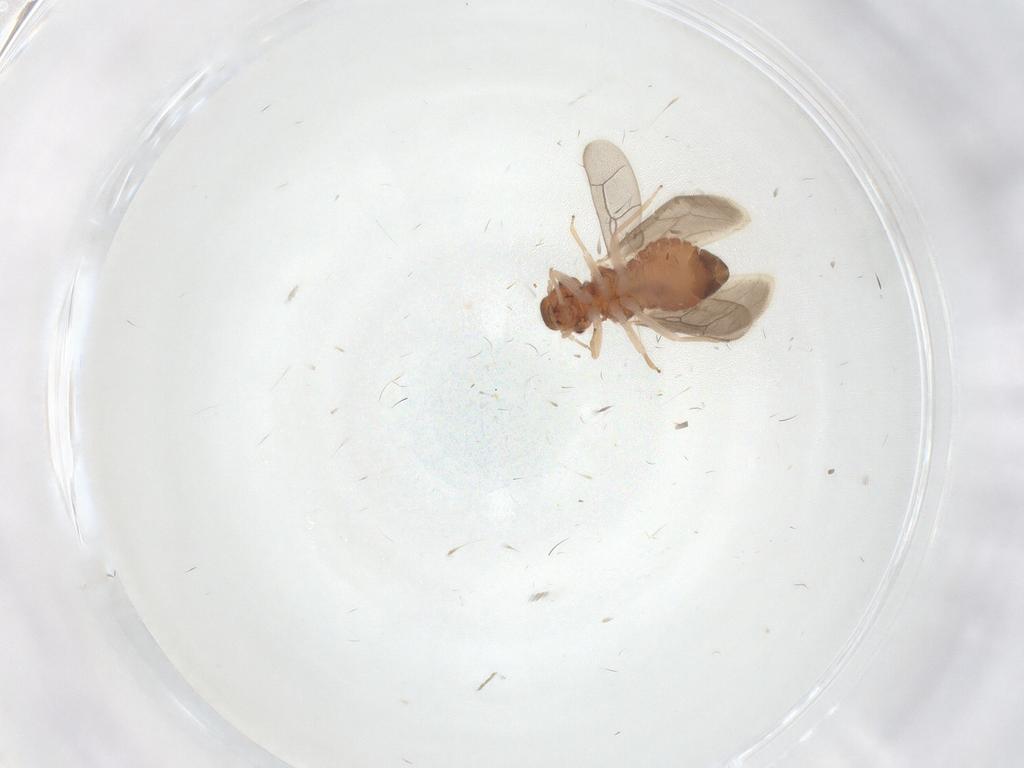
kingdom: Animalia
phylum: Arthropoda
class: Insecta
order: Psocodea
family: Archipsocidae
